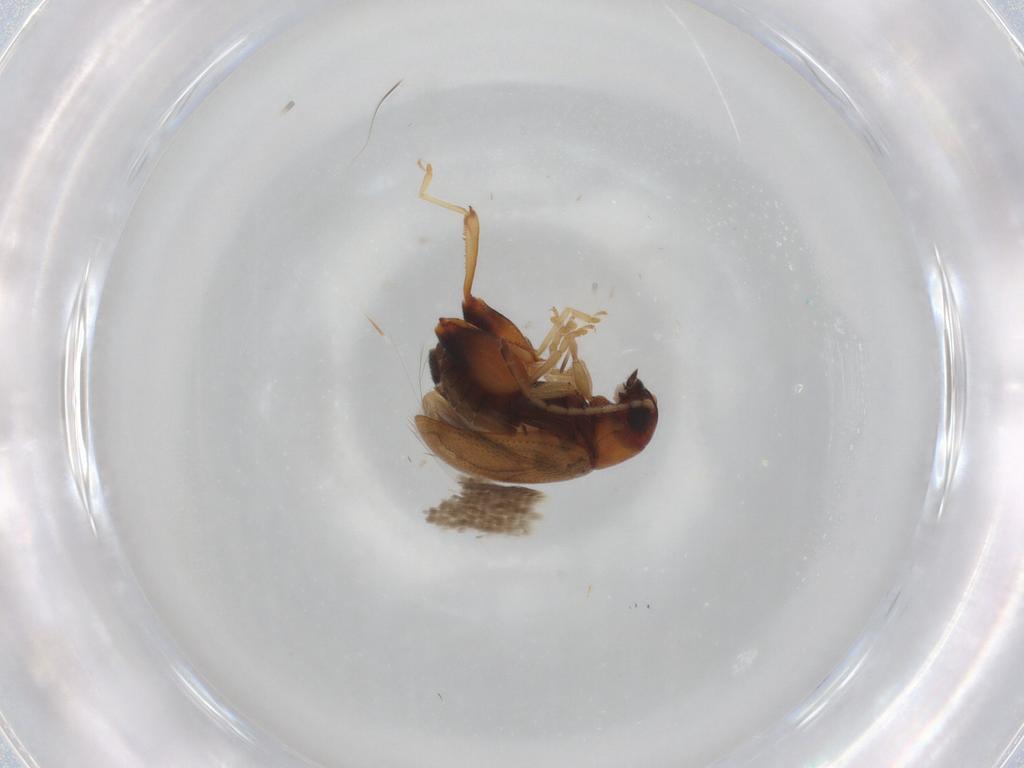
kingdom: Animalia
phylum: Arthropoda
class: Insecta
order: Coleoptera
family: Chrysomelidae
